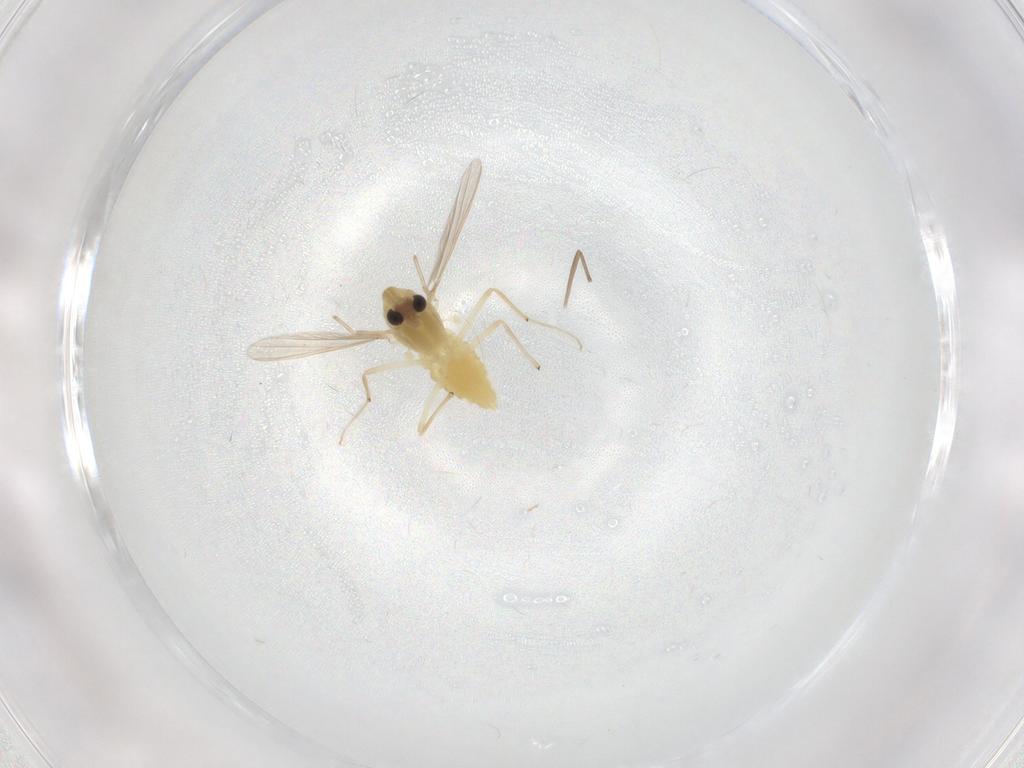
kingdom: Animalia
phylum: Arthropoda
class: Insecta
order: Diptera
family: Chironomidae
